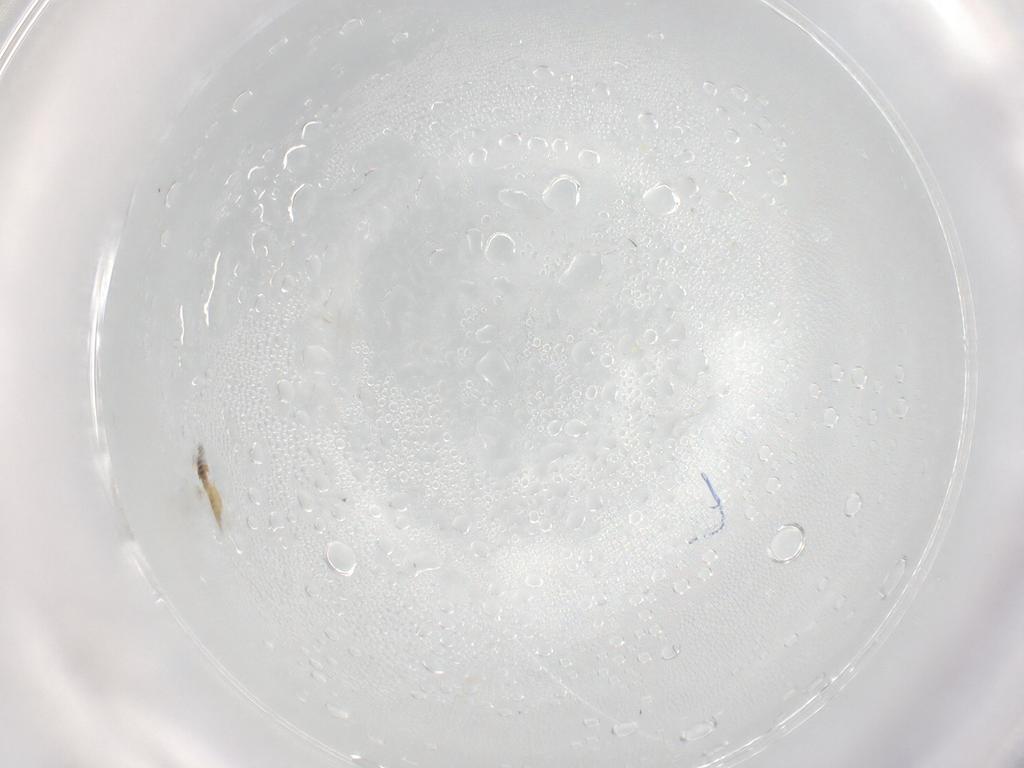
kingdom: Animalia
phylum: Arthropoda
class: Insecta
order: Hymenoptera
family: Mymaridae
